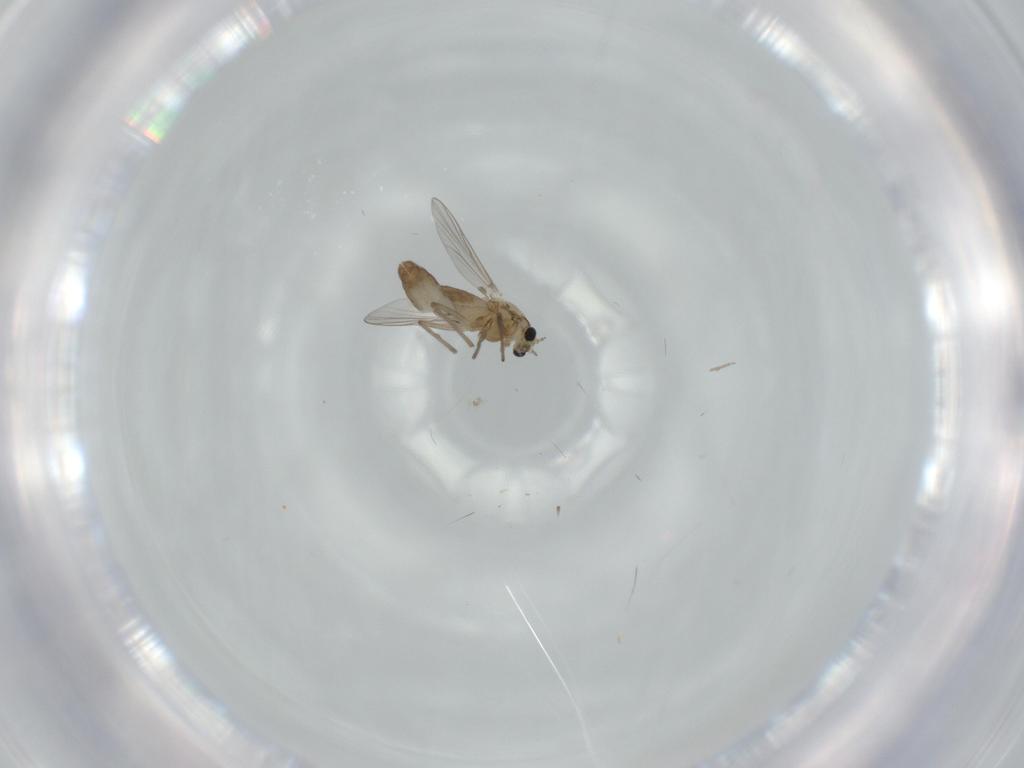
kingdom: Animalia
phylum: Arthropoda
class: Insecta
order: Diptera
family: Chironomidae
